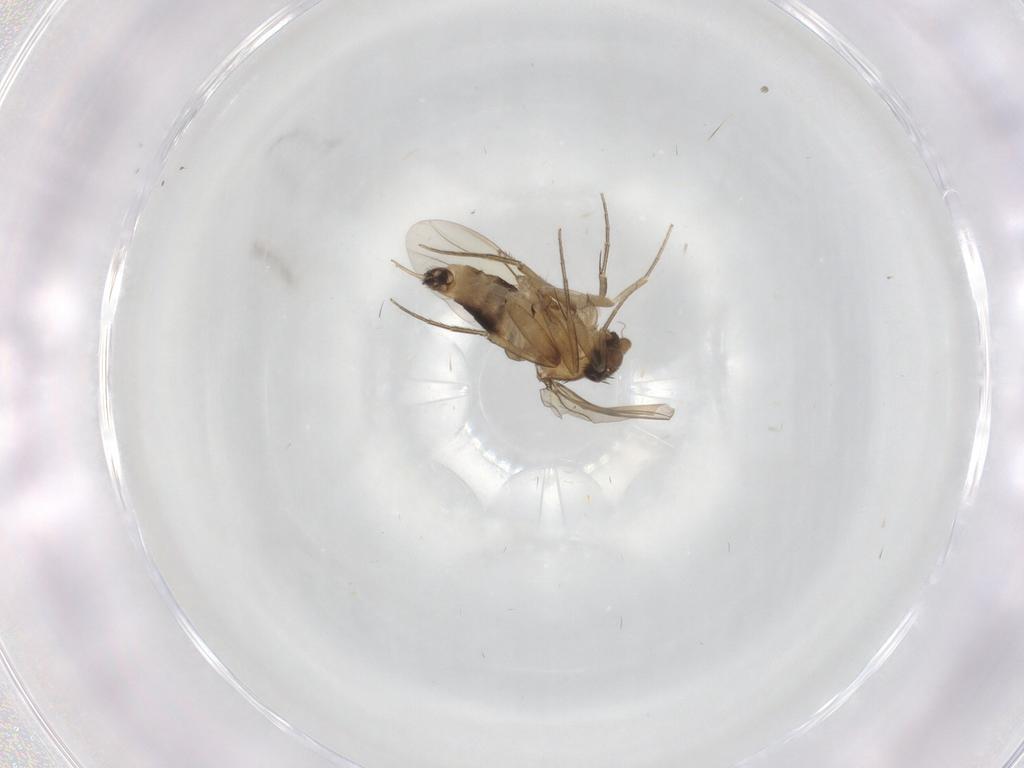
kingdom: Animalia
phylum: Arthropoda
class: Insecta
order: Diptera
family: Ceratopogonidae
